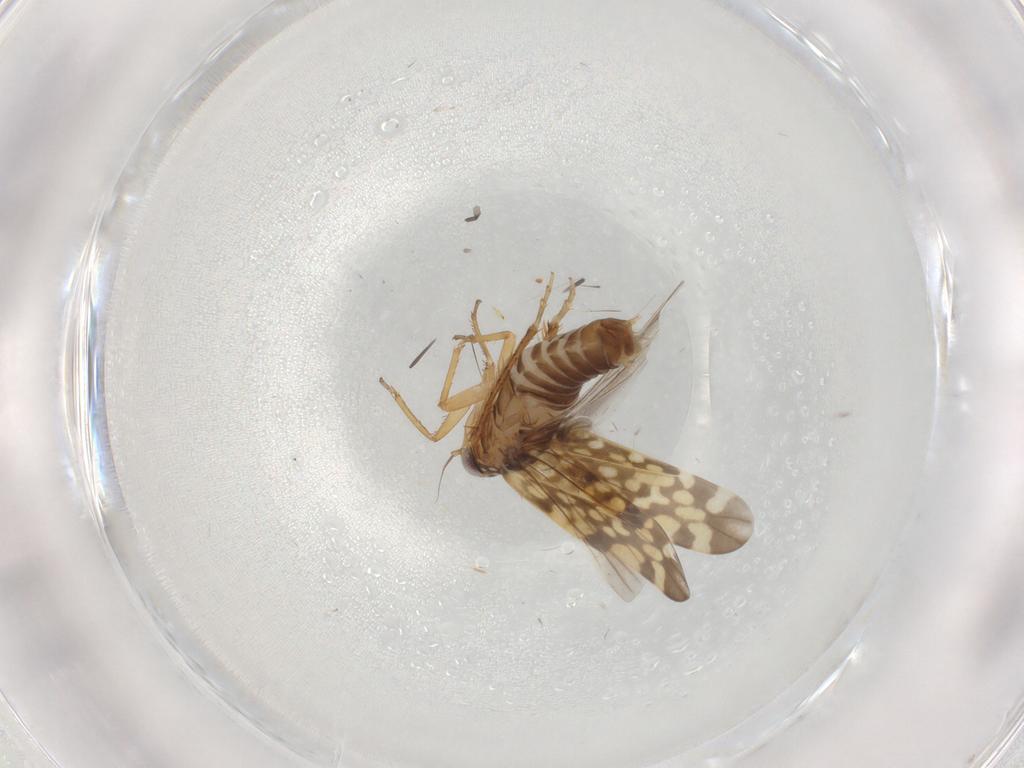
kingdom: Animalia
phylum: Arthropoda
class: Insecta
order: Hemiptera
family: Cicadellidae
